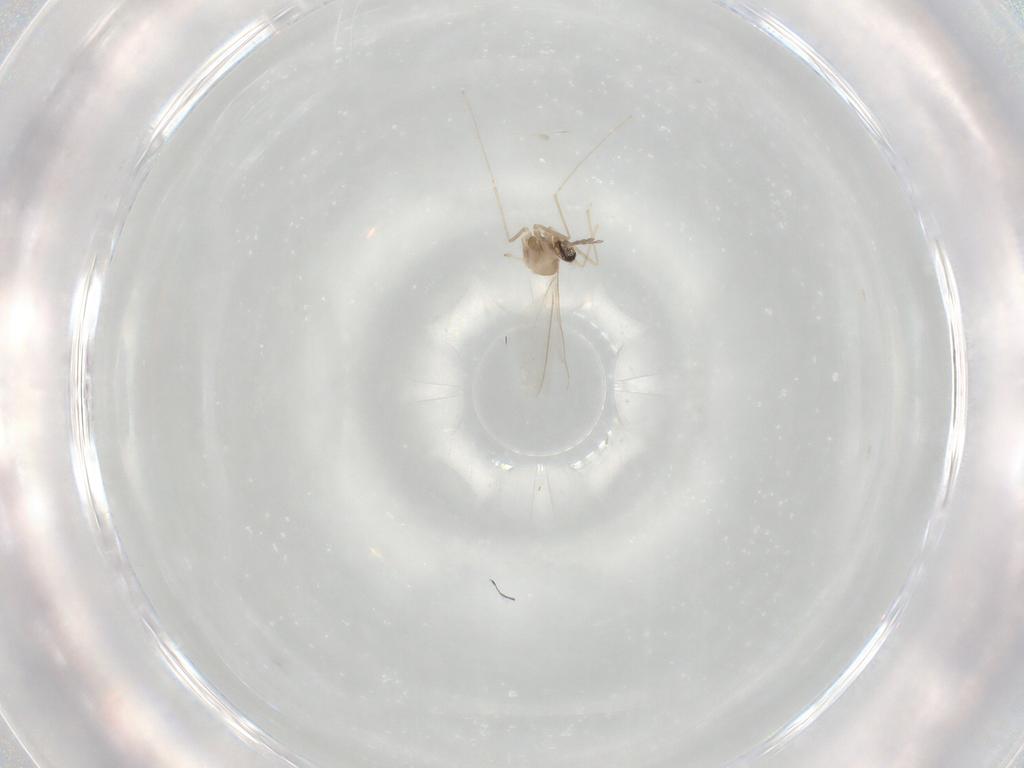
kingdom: Animalia
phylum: Arthropoda
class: Insecta
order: Diptera
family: Cecidomyiidae
